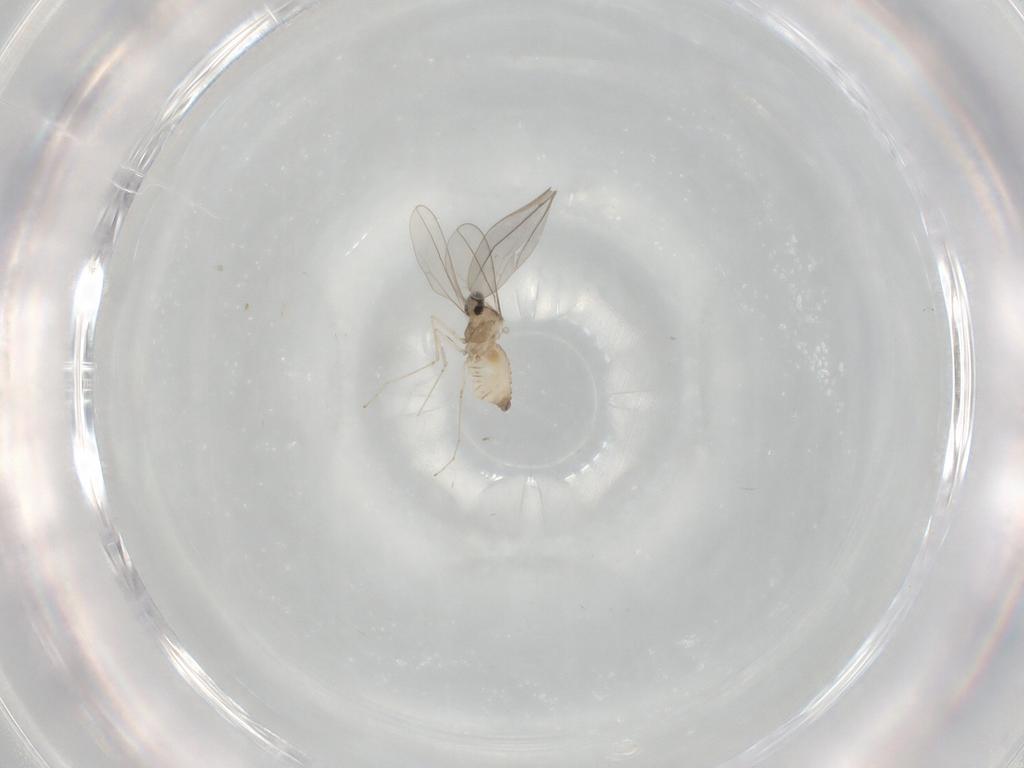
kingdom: Animalia
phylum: Arthropoda
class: Insecta
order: Diptera
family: Cecidomyiidae
